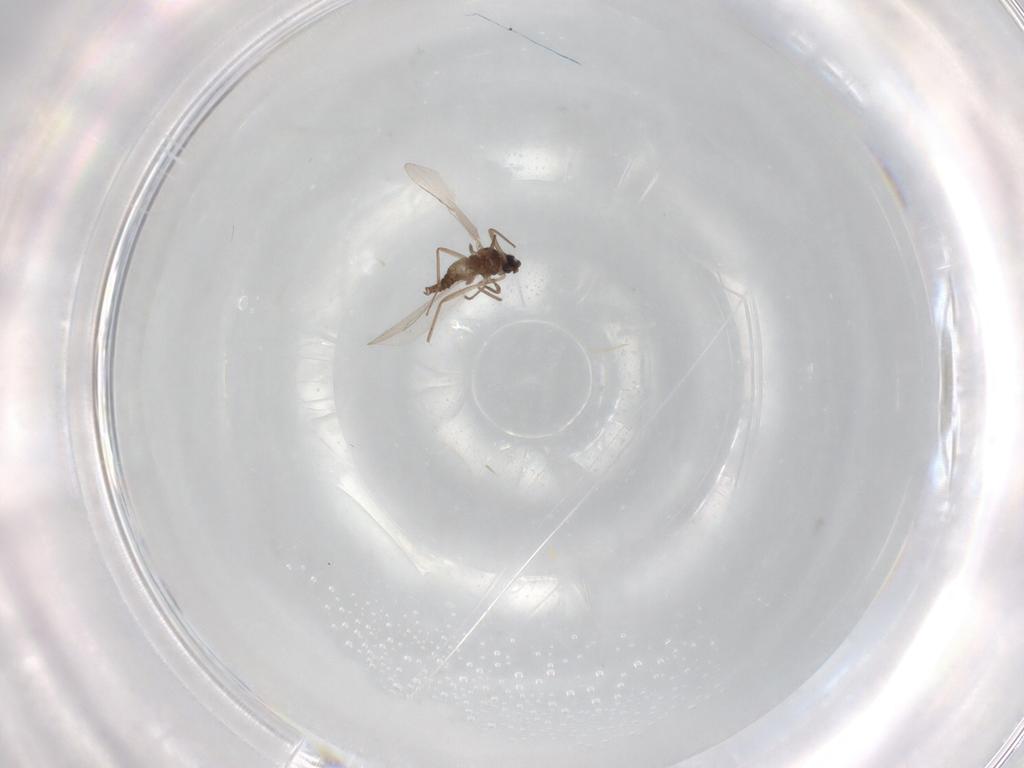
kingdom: Animalia
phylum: Arthropoda
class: Insecta
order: Diptera
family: Cecidomyiidae
